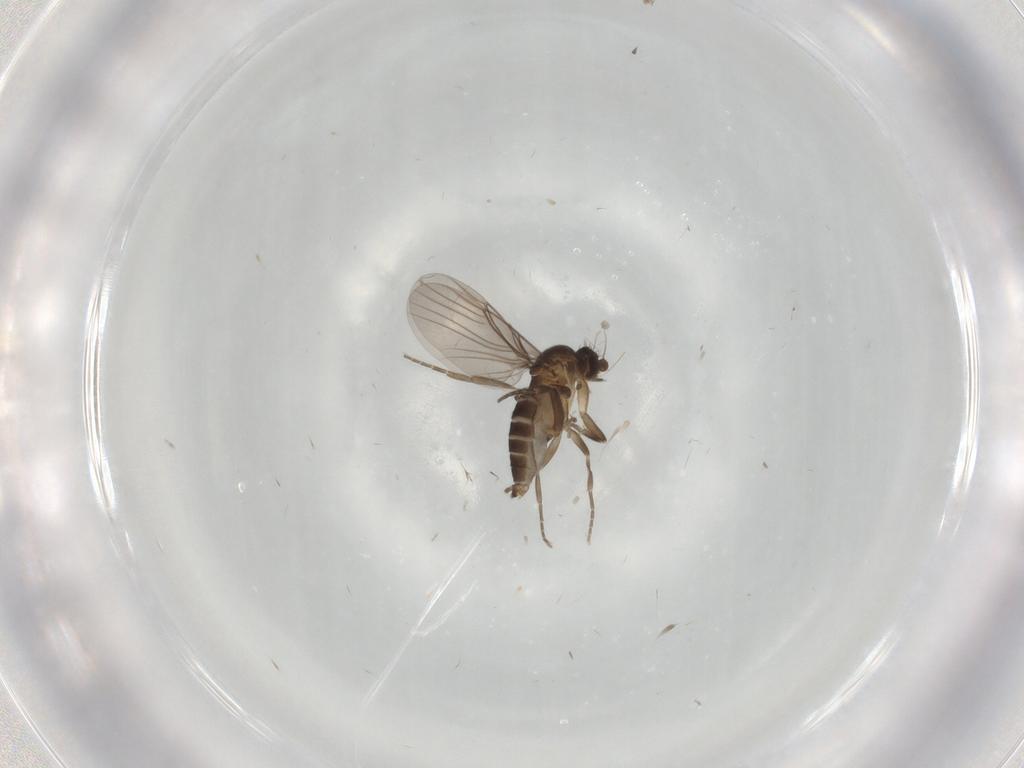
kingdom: Animalia
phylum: Arthropoda
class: Insecta
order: Diptera
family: Phoridae
